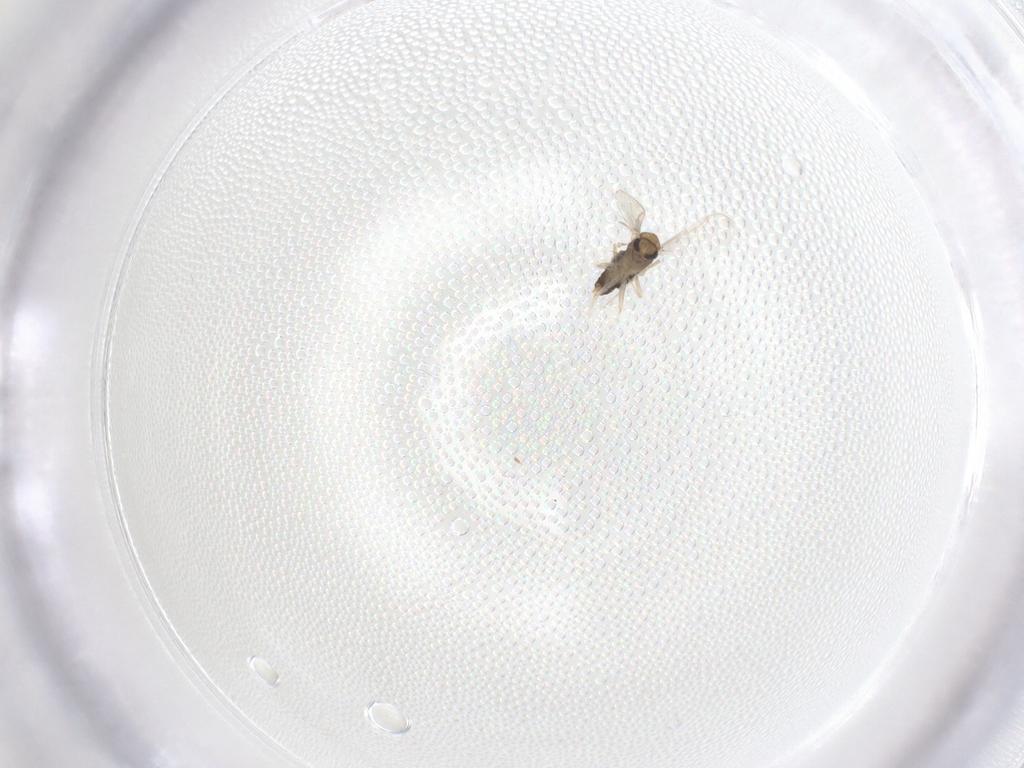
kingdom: Animalia
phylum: Arthropoda
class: Insecta
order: Diptera
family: Chironomidae
